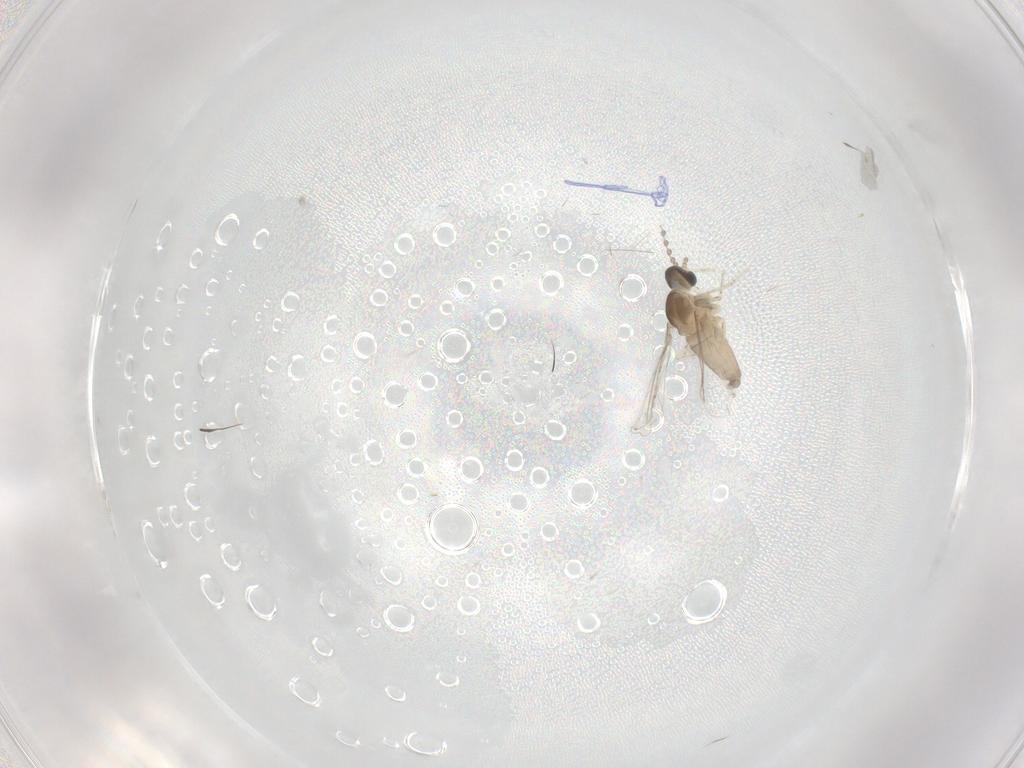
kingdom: Animalia
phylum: Arthropoda
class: Insecta
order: Diptera
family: Cecidomyiidae
